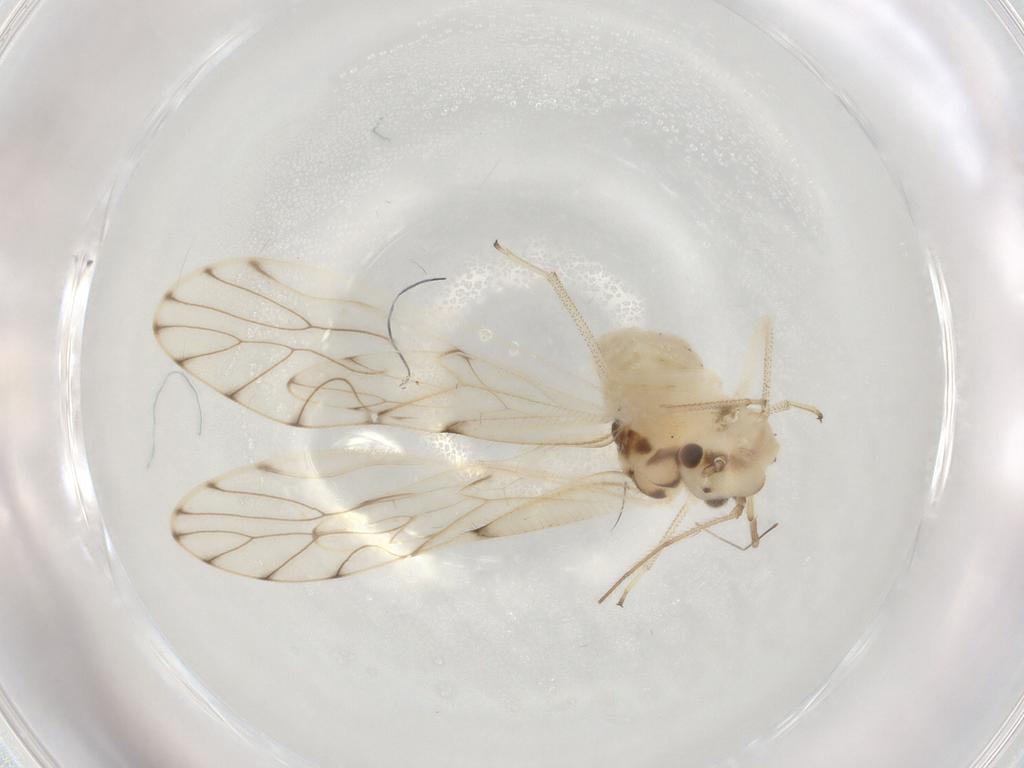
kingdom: Animalia
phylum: Arthropoda
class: Insecta
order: Psocodea
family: Philotarsidae
